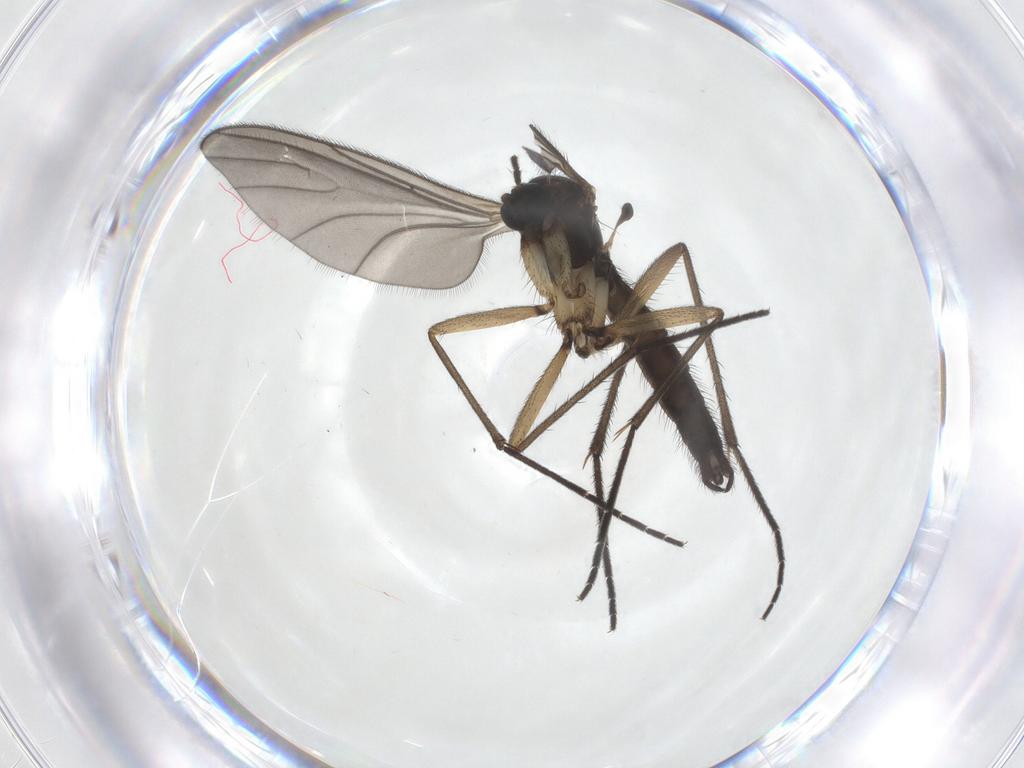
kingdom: Animalia
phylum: Arthropoda
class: Insecta
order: Diptera
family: Sciaridae
